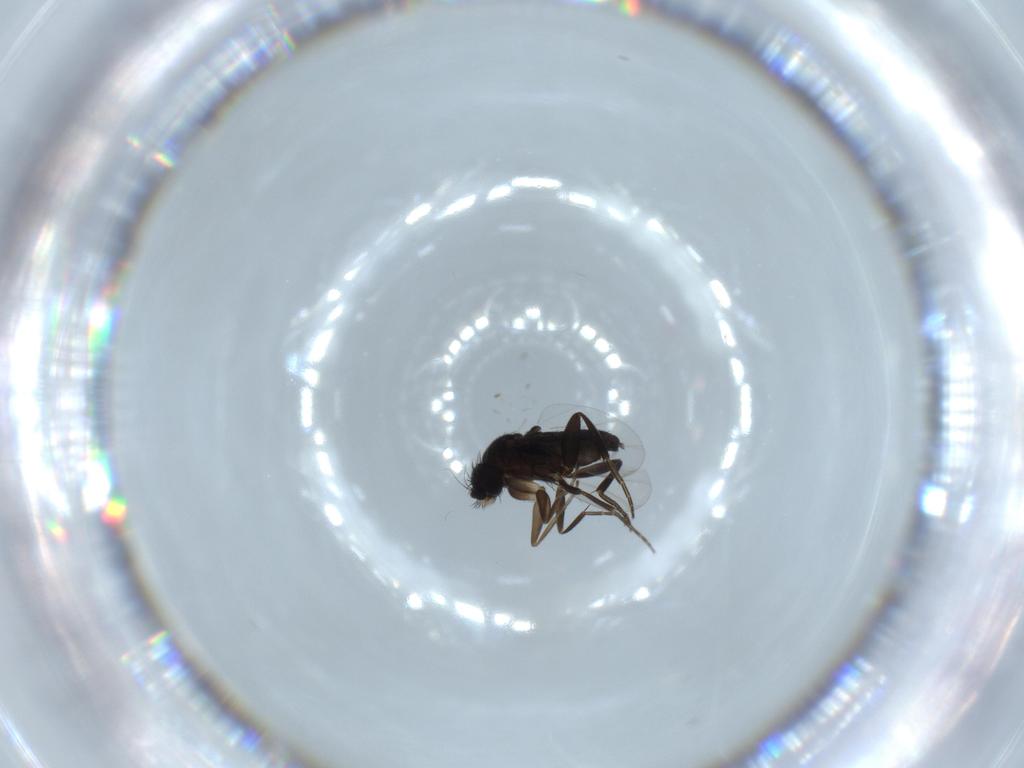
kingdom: Animalia
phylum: Arthropoda
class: Insecta
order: Diptera
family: Phoridae
